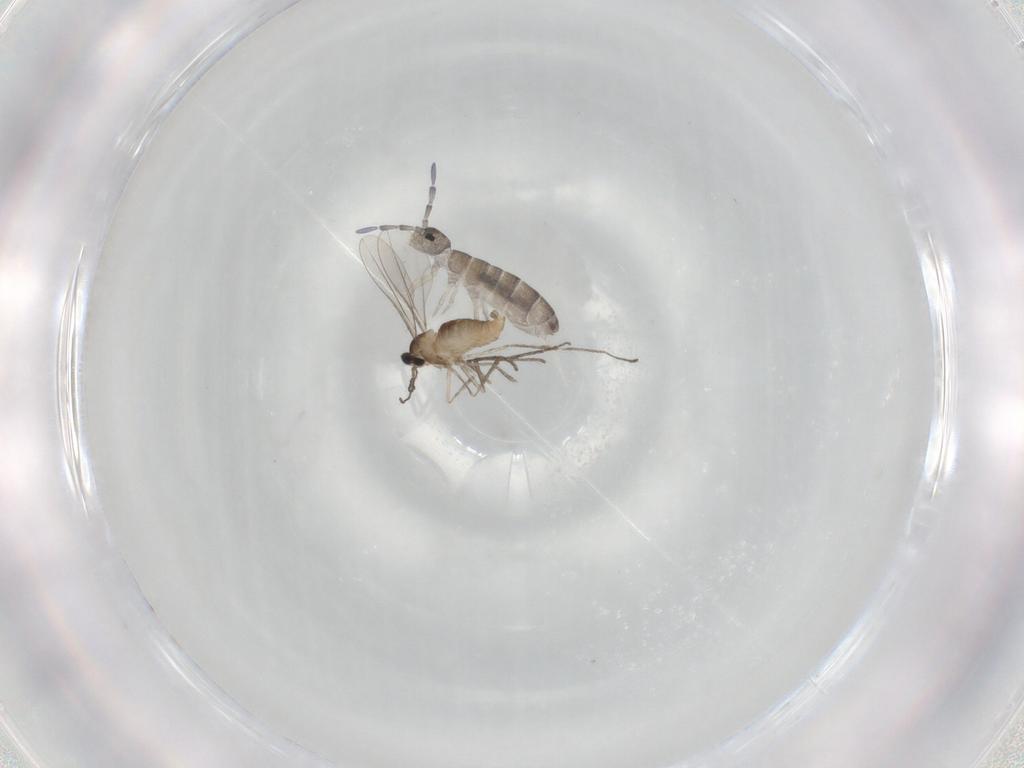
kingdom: Animalia
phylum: Arthropoda
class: Insecta
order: Diptera
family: Cecidomyiidae
